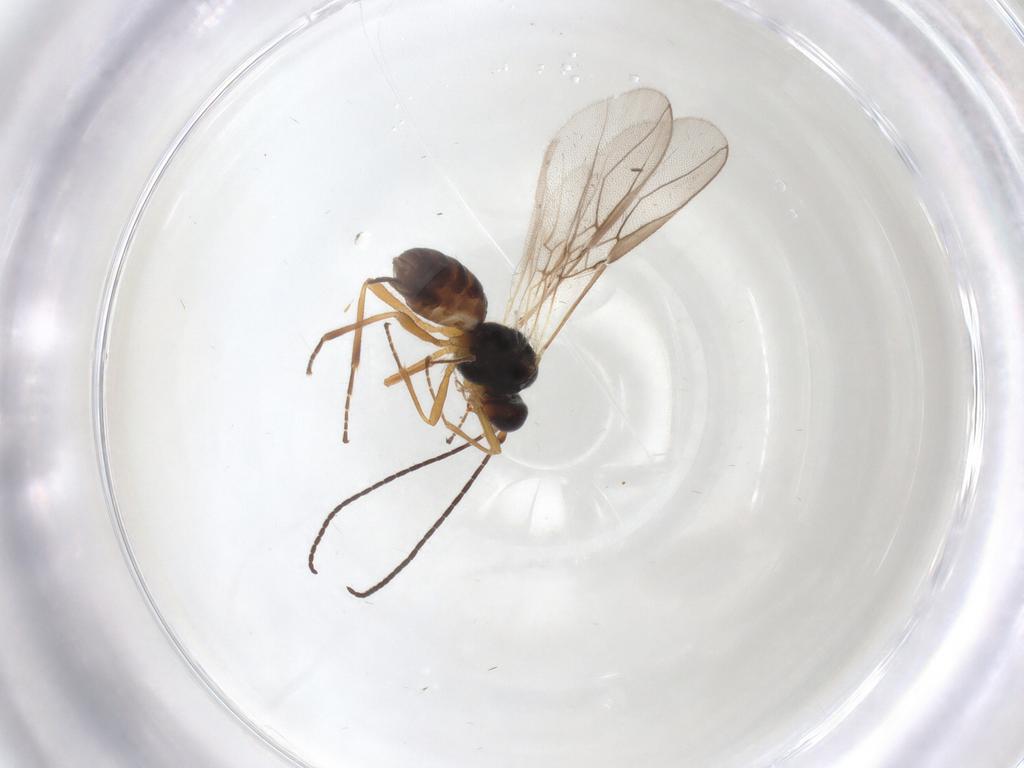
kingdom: Animalia
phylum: Arthropoda
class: Insecta
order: Hymenoptera
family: Braconidae
